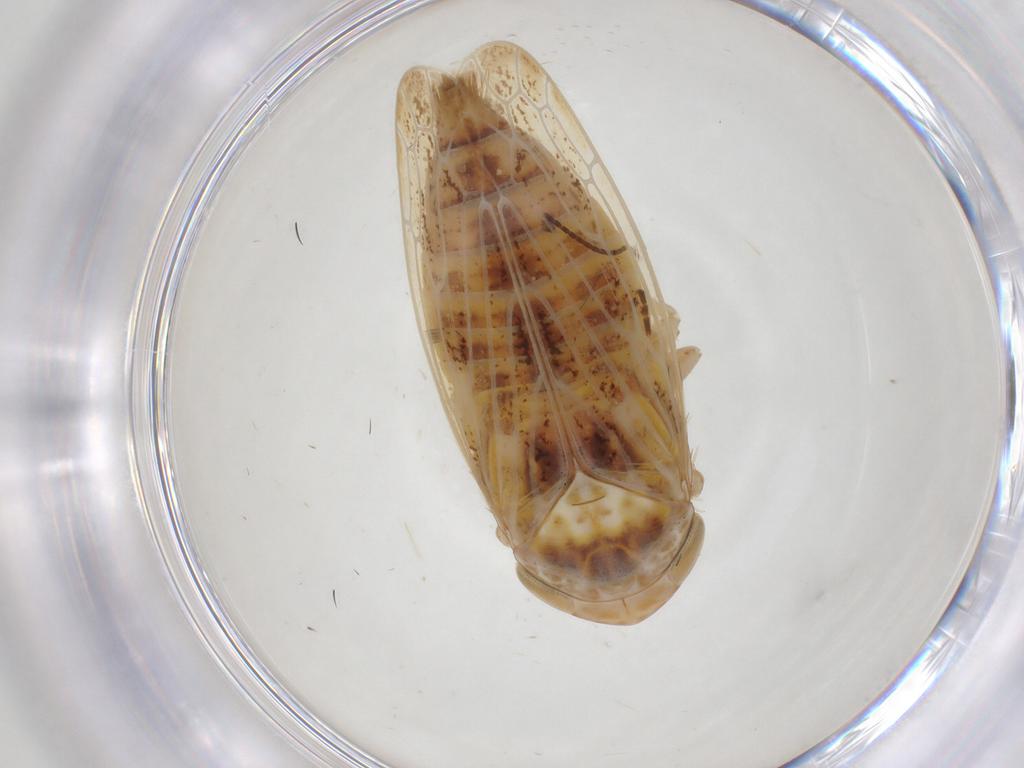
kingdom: Animalia
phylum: Arthropoda
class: Insecta
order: Hemiptera
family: Cicadellidae
